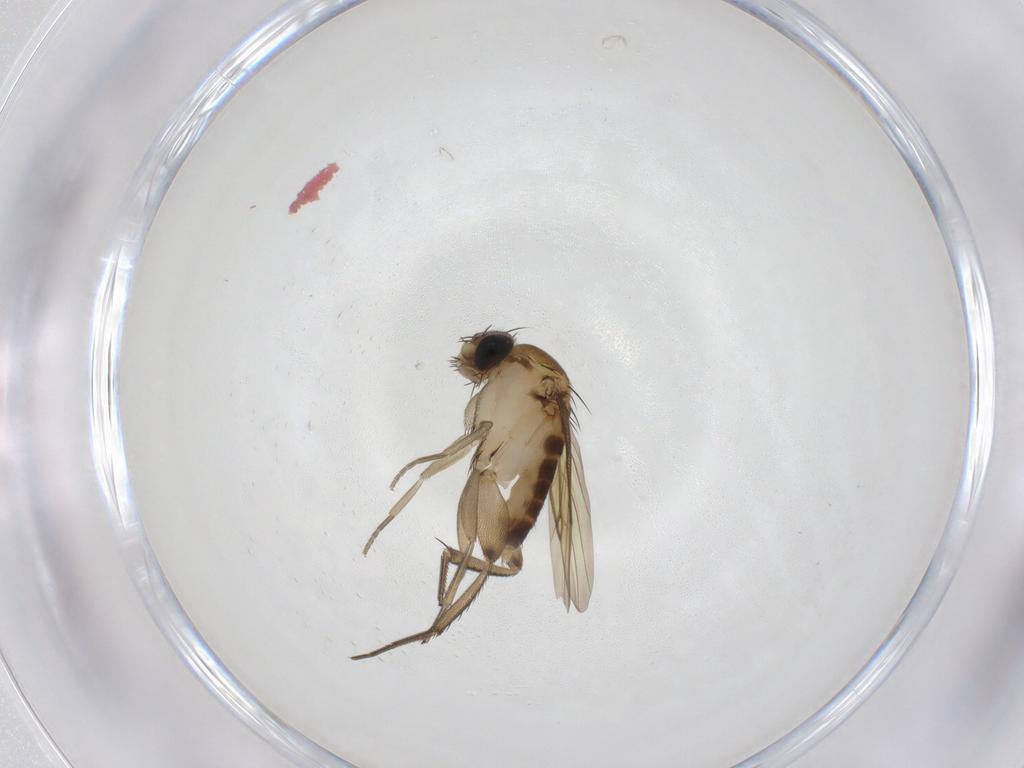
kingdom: Animalia
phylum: Arthropoda
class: Insecta
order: Diptera
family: Phoridae
